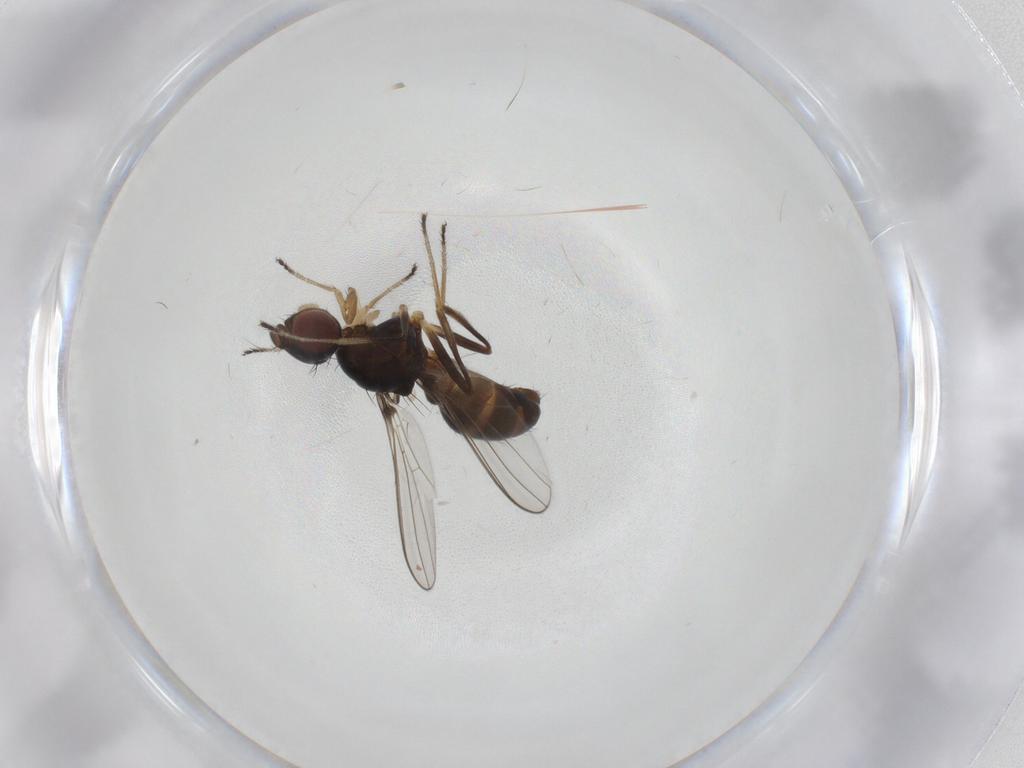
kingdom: Animalia
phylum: Arthropoda
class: Insecta
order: Diptera
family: Sepsidae
